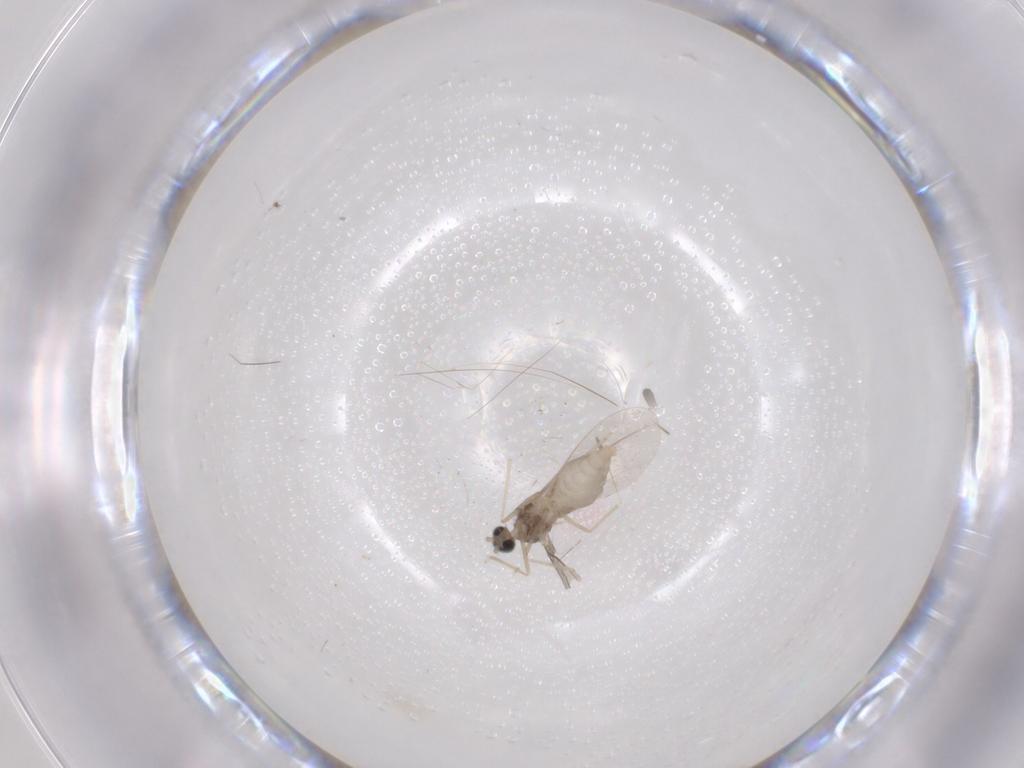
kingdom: Animalia
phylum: Arthropoda
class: Insecta
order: Diptera
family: Cecidomyiidae
